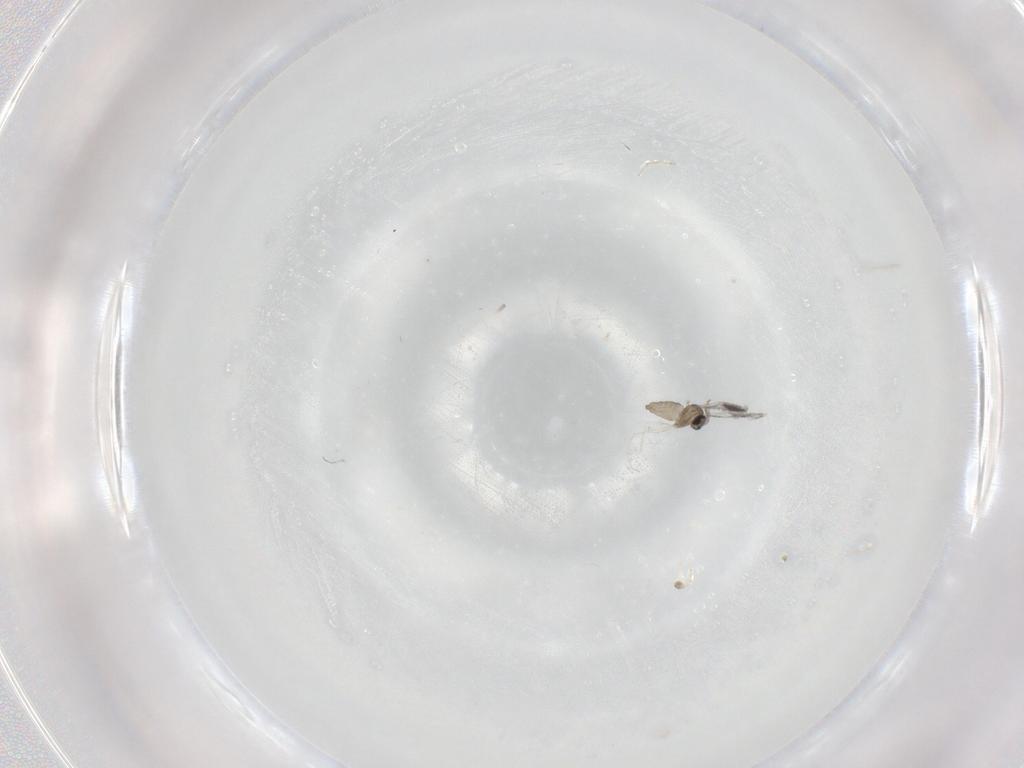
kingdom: Animalia
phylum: Arthropoda
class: Insecta
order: Diptera
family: Cecidomyiidae
